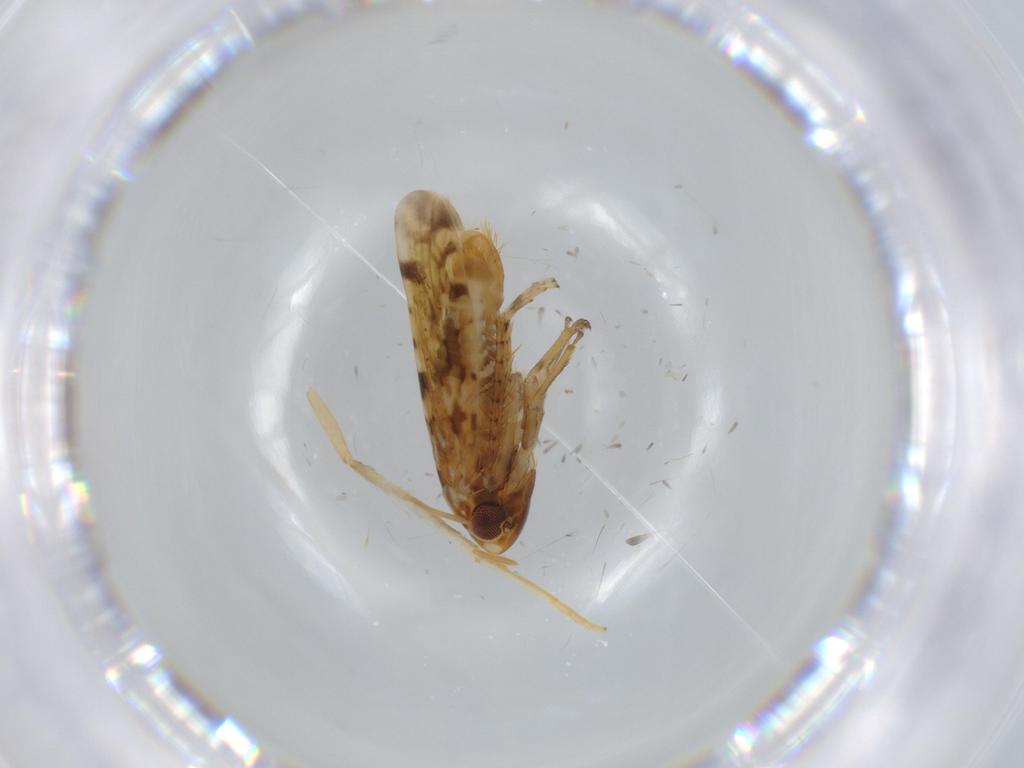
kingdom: Animalia
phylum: Arthropoda
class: Insecta
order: Hemiptera
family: Cicadellidae
